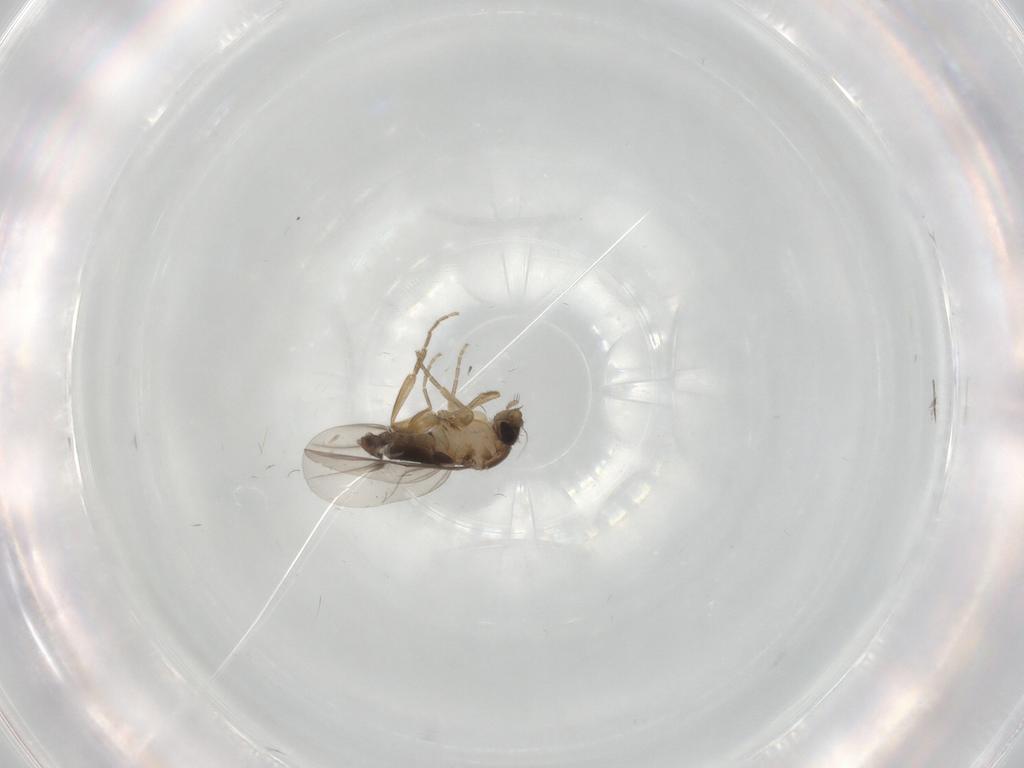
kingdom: Animalia
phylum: Arthropoda
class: Insecta
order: Diptera
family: Phoridae
